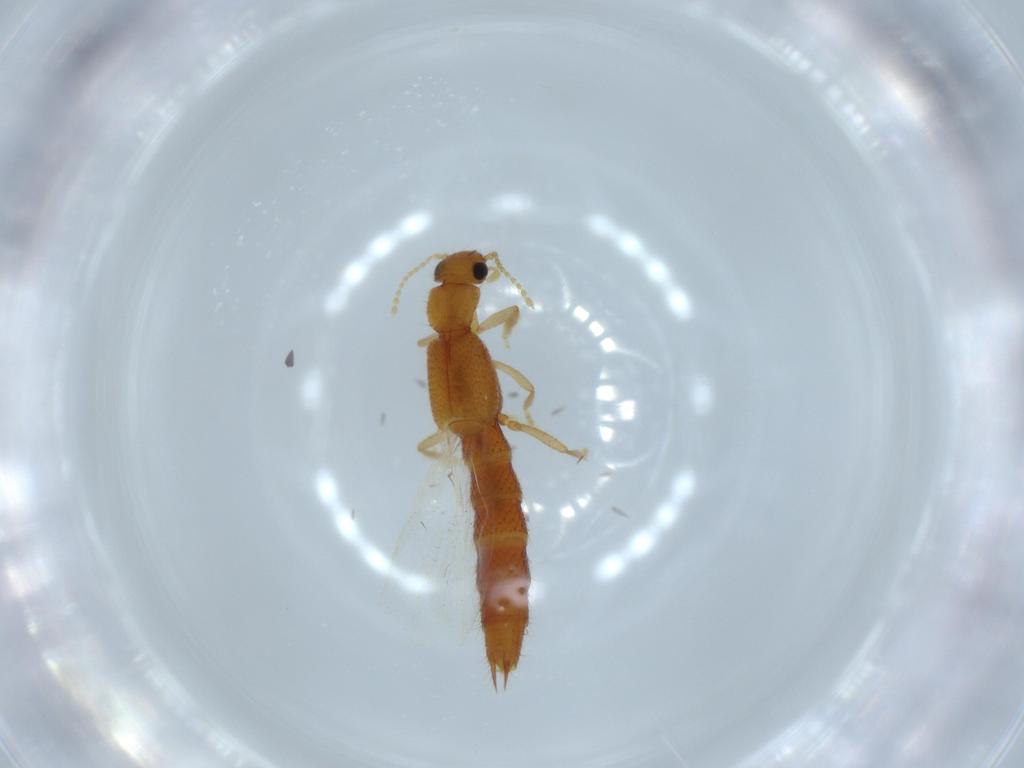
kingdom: Animalia
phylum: Arthropoda
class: Insecta
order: Coleoptera
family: Staphylinidae
